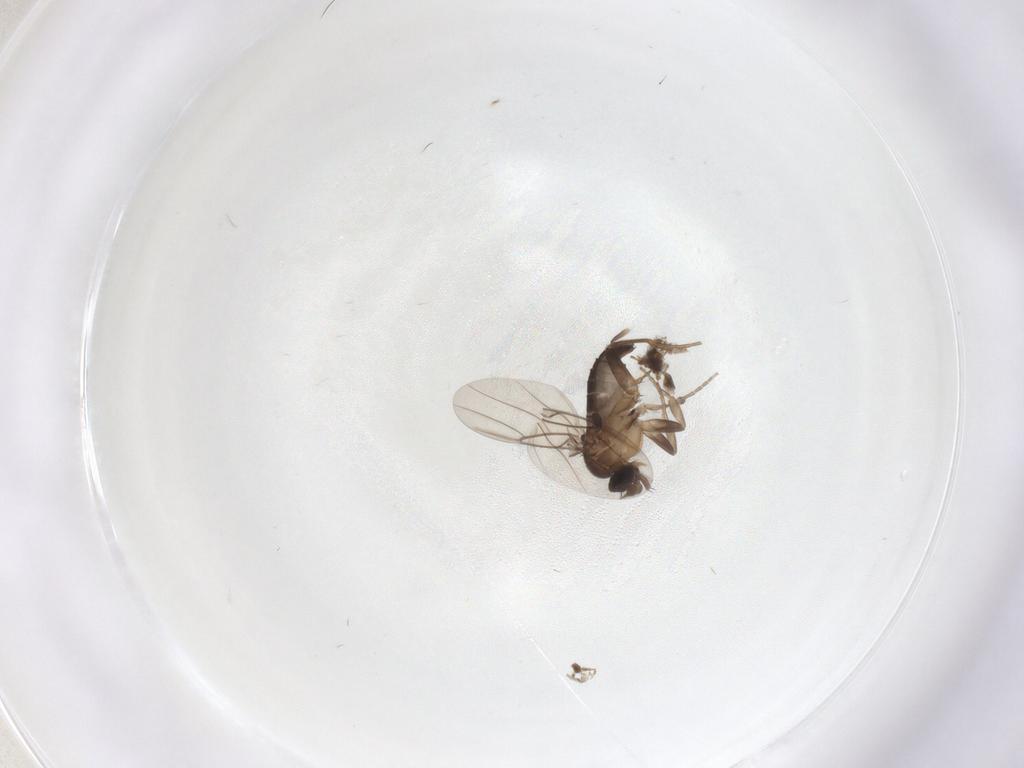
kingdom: Animalia
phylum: Arthropoda
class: Insecta
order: Diptera
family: Phoridae
